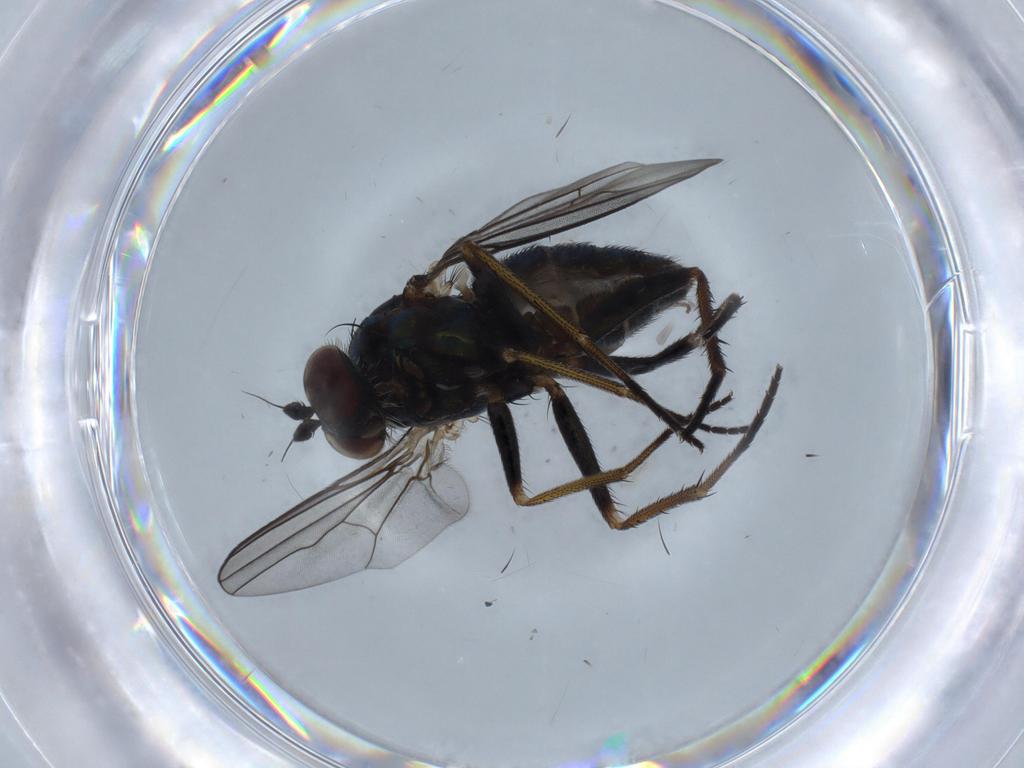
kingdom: Animalia
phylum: Arthropoda
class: Insecta
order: Diptera
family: Dolichopodidae
